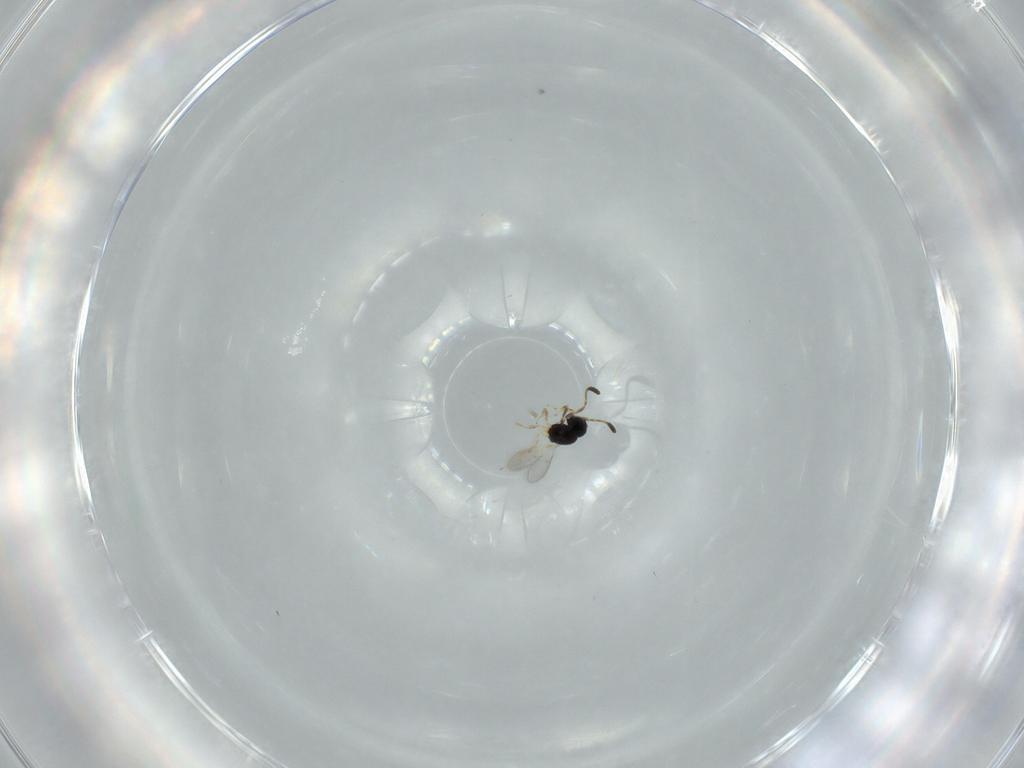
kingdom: Animalia
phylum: Arthropoda
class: Insecta
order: Hymenoptera
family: Scelionidae
